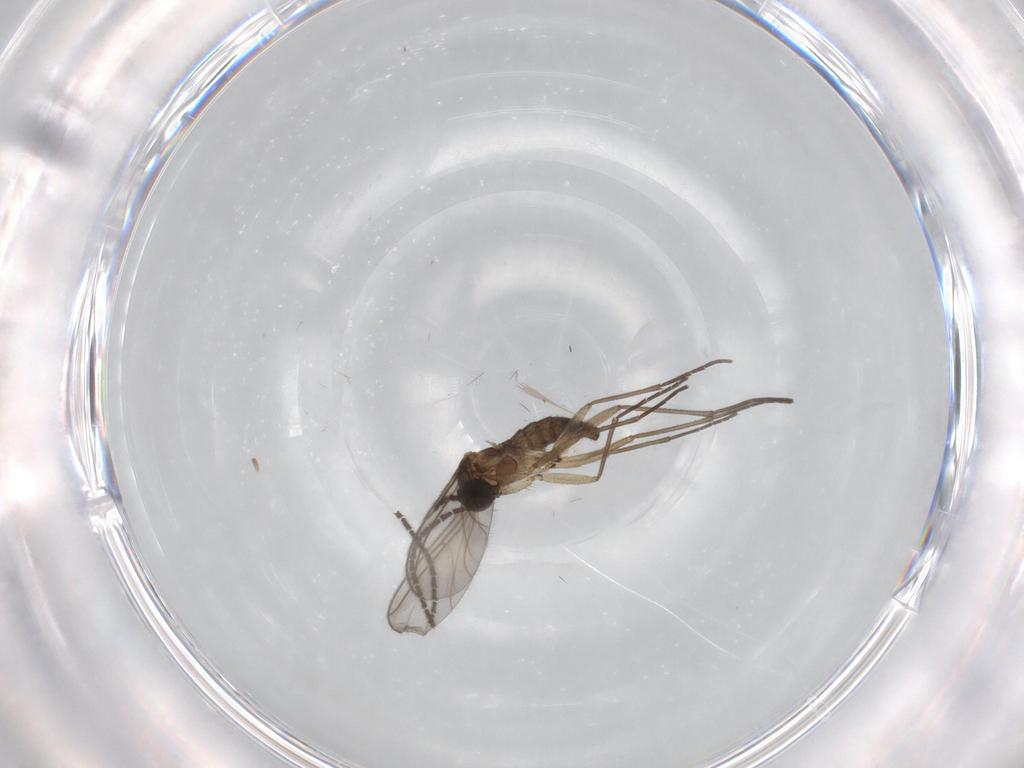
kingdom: Animalia
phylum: Arthropoda
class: Insecta
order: Diptera
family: Sciaridae
